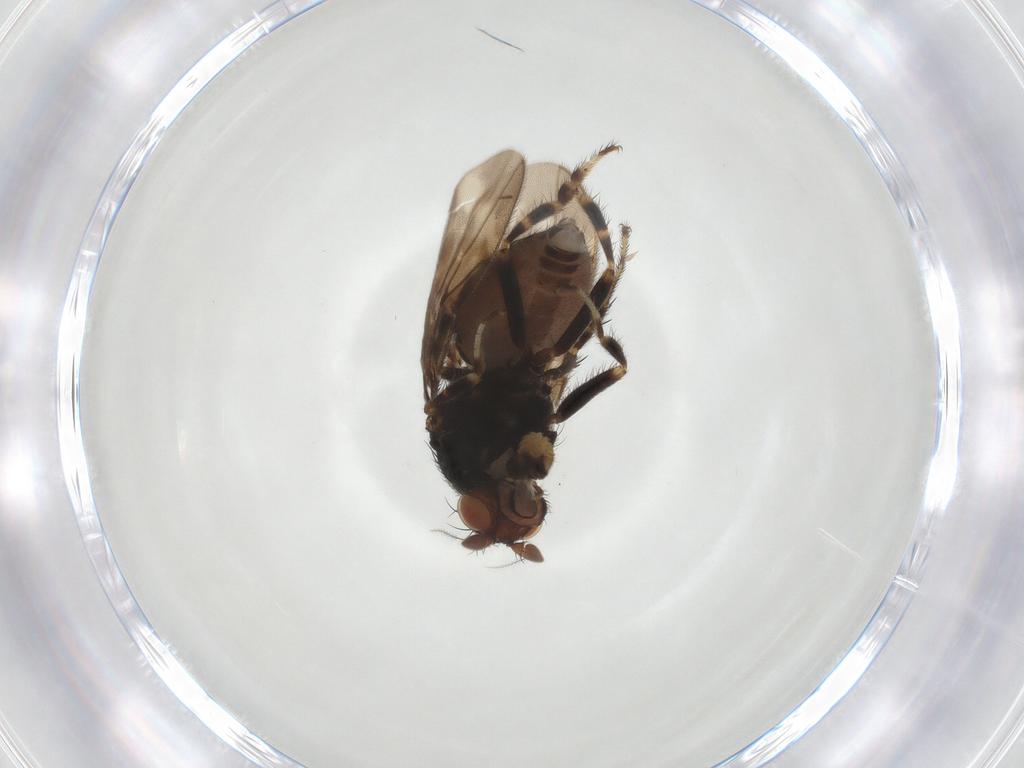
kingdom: Animalia
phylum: Arthropoda
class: Insecta
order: Diptera
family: Sphaeroceridae
